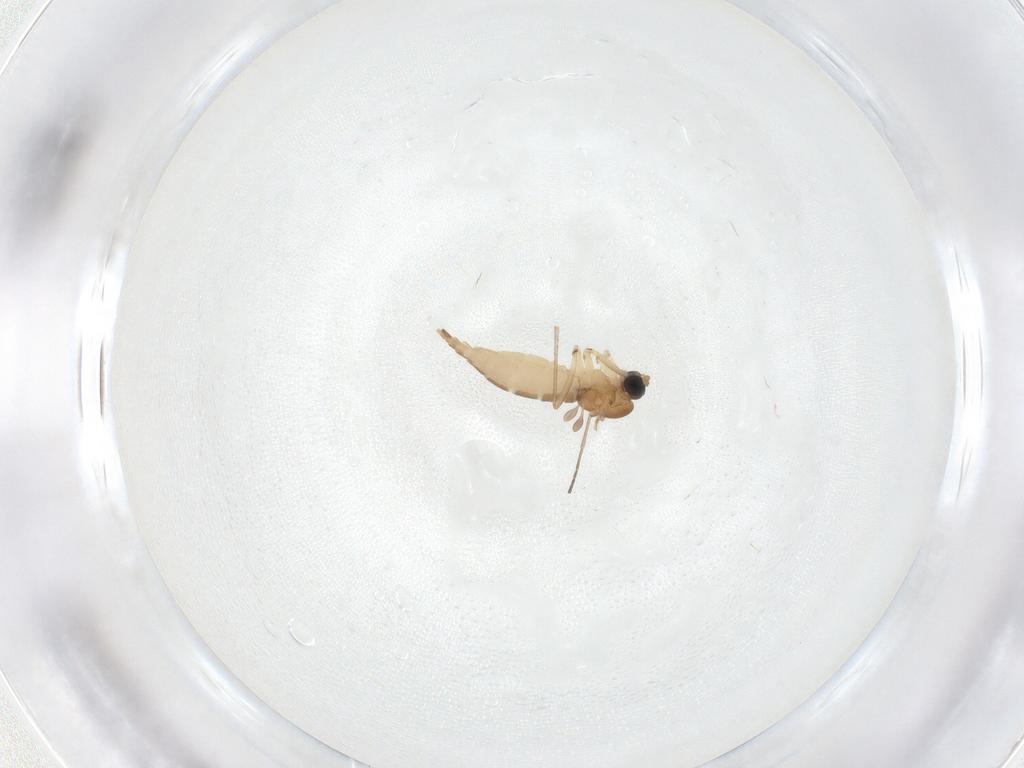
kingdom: Animalia
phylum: Arthropoda
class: Insecta
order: Diptera
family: Sciaridae
